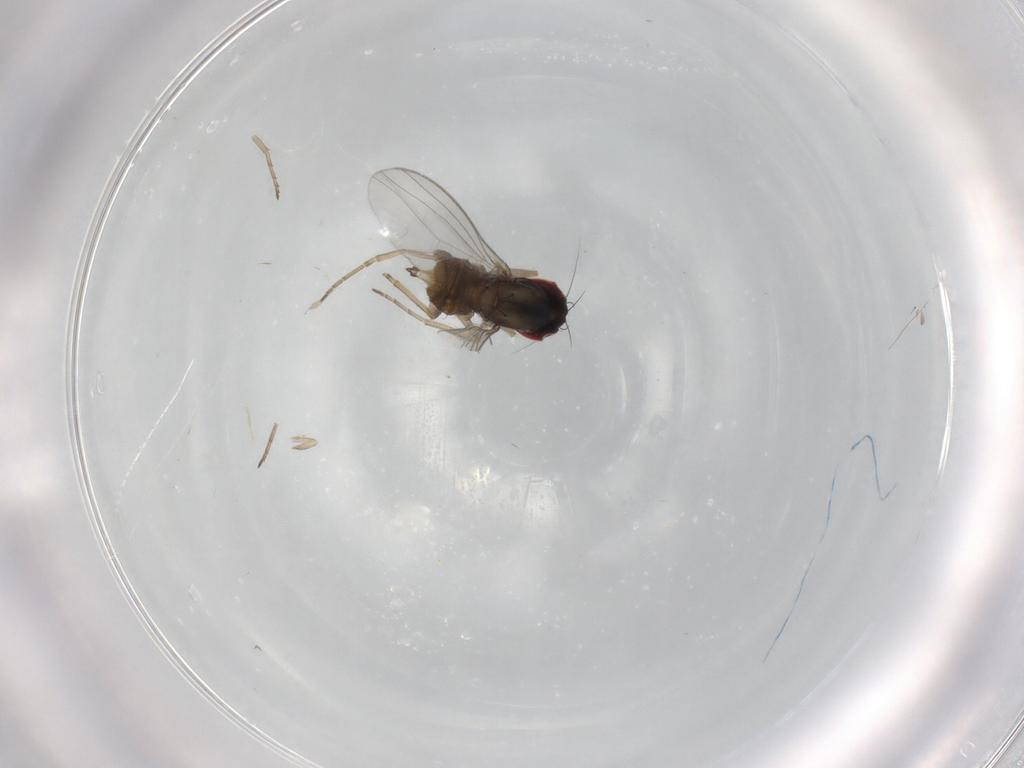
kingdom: Animalia
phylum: Arthropoda
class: Insecta
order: Diptera
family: Dolichopodidae
